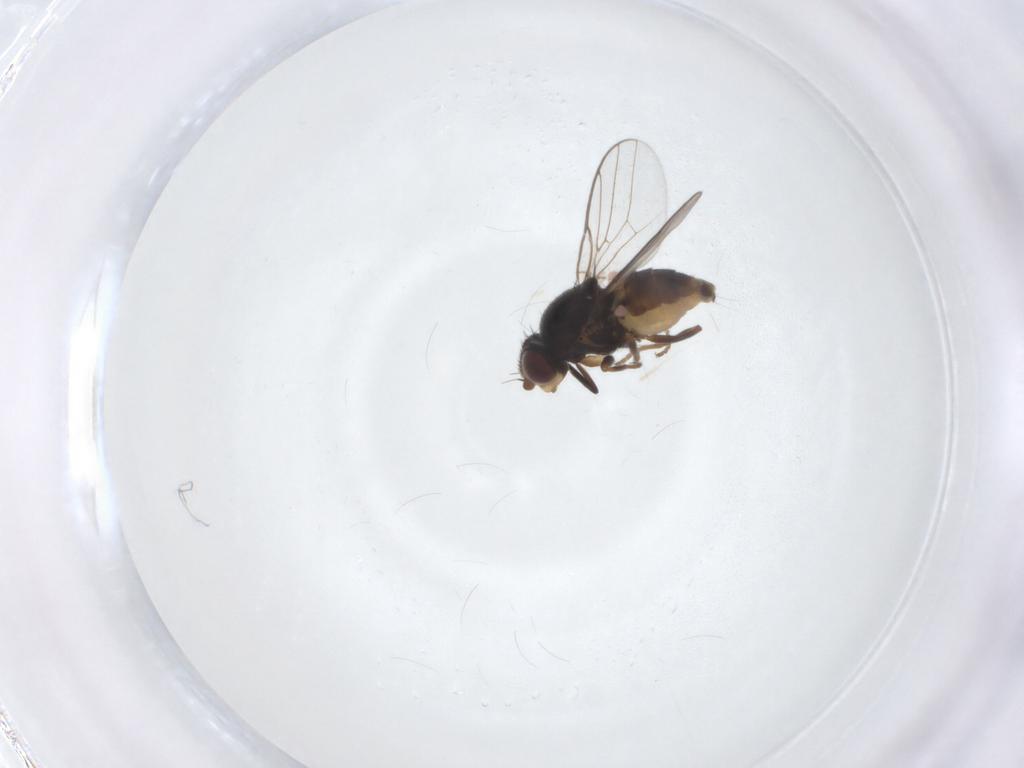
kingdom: Animalia
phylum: Arthropoda
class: Insecta
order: Diptera
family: Chloropidae
